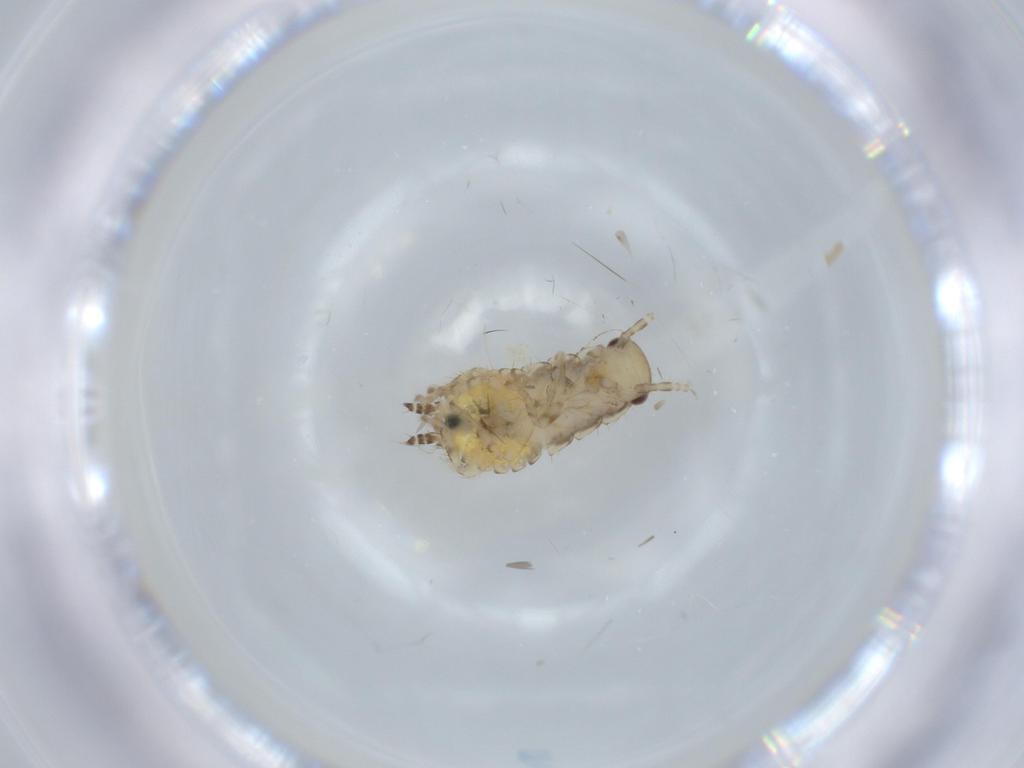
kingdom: Animalia
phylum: Arthropoda
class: Insecta
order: Blattodea
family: Ectobiidae
